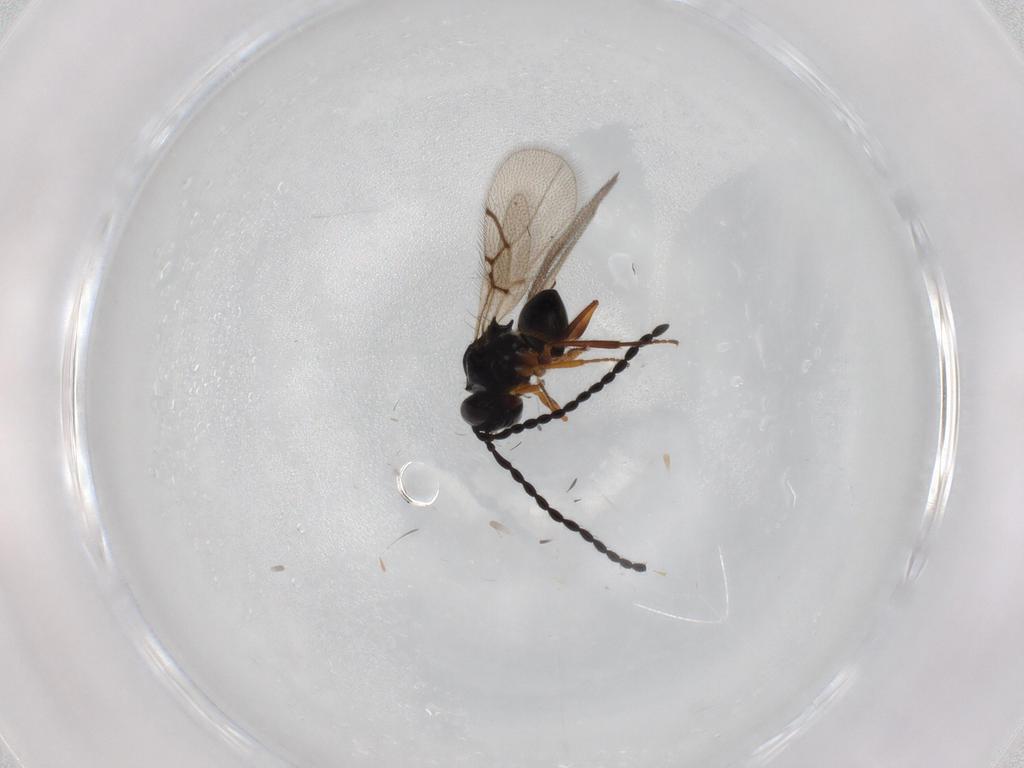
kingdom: Animalia
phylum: Arthropoda
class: Insecta
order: Hymenoptera
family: Figitidae
